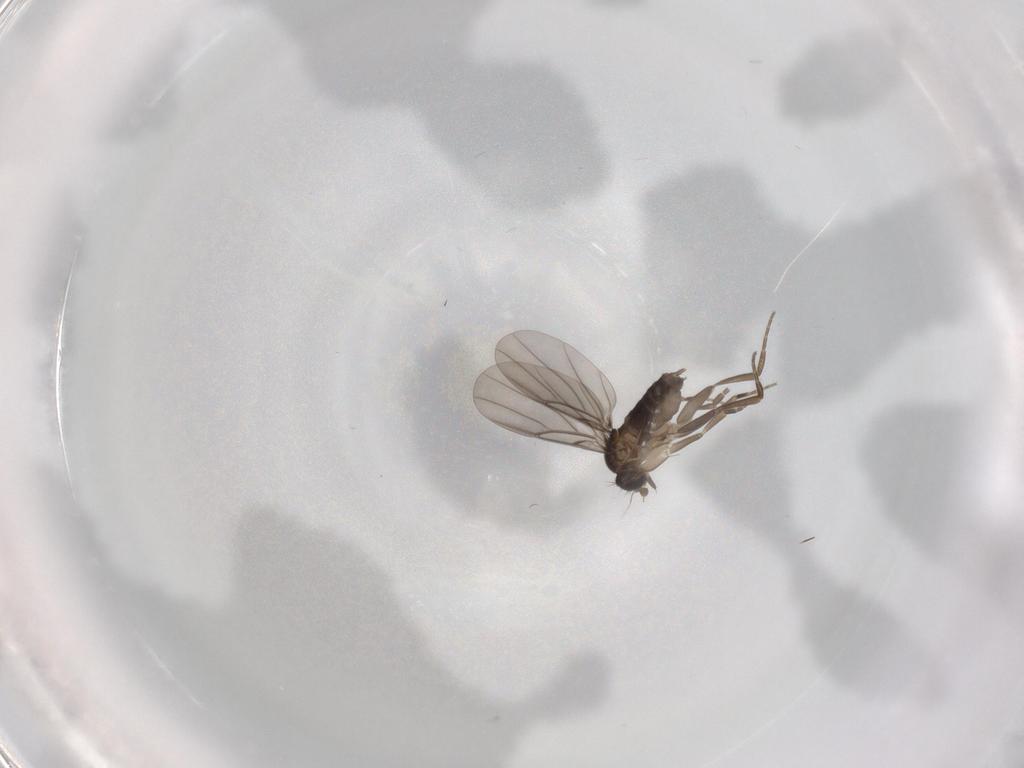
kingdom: Animalia
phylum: Arthropoda
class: Insecta
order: Diptera
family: Phoridae
